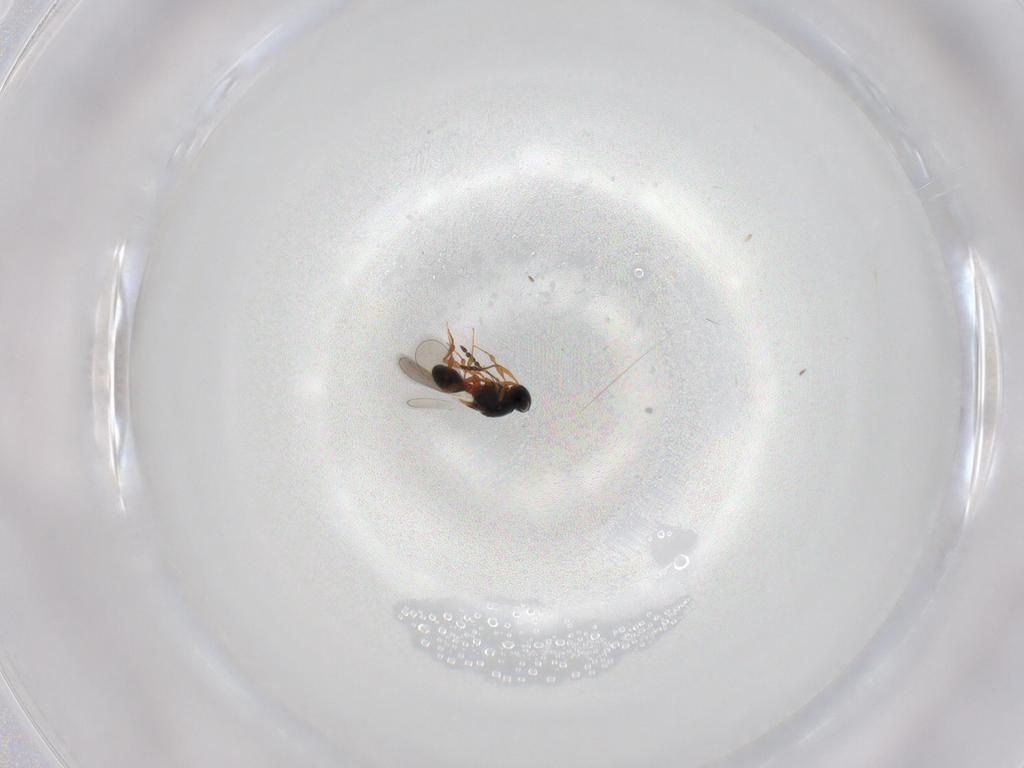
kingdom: Animalia
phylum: Arthropoda
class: Insecta
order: Hymenoptera
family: Platygastridae
